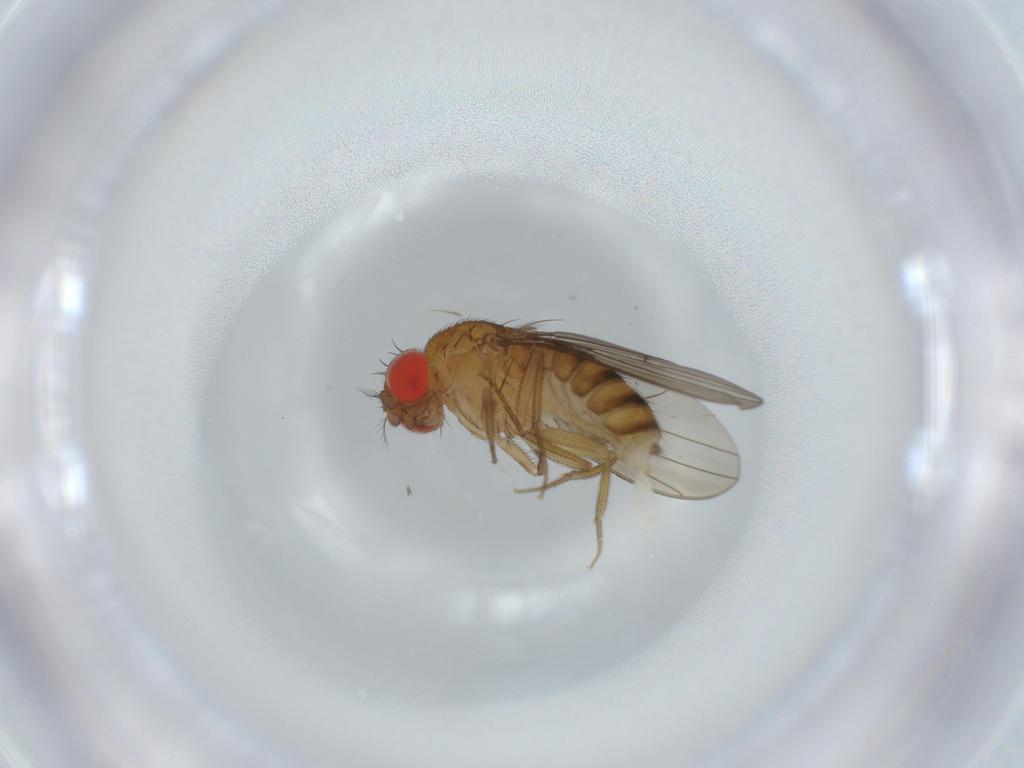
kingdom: Animalia
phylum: Arthropoda
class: Insecta
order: Diptera
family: Drosophilidae
